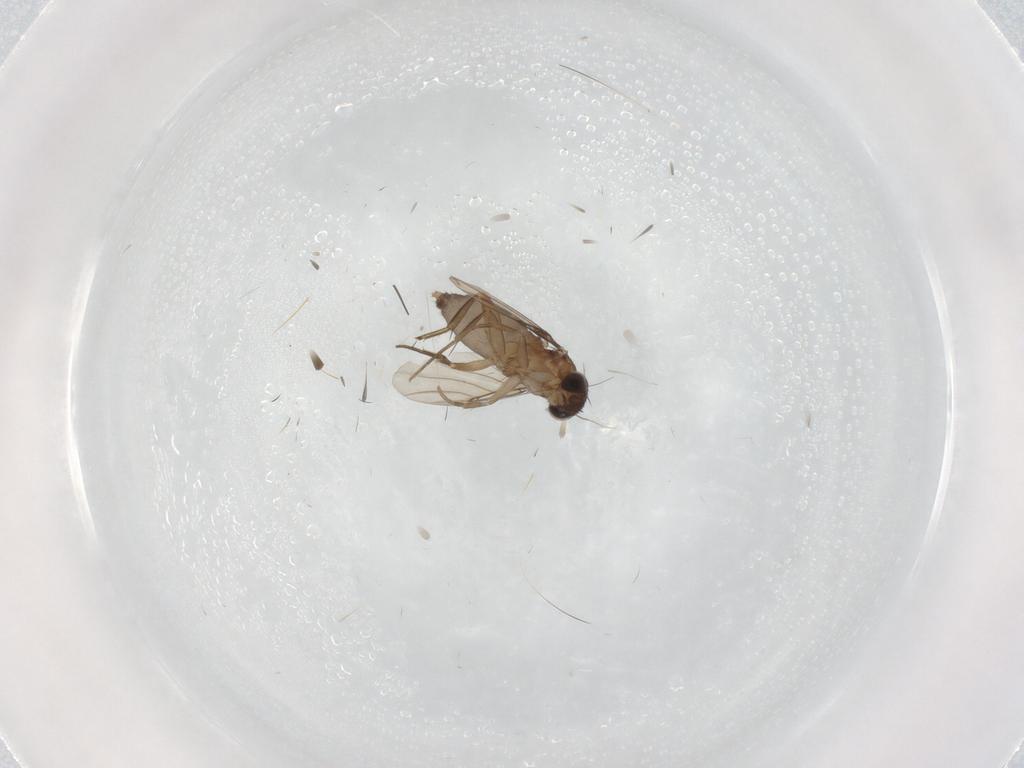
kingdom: Animalia
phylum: Arthropoda
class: Insecta
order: Diptera
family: Phoridae
